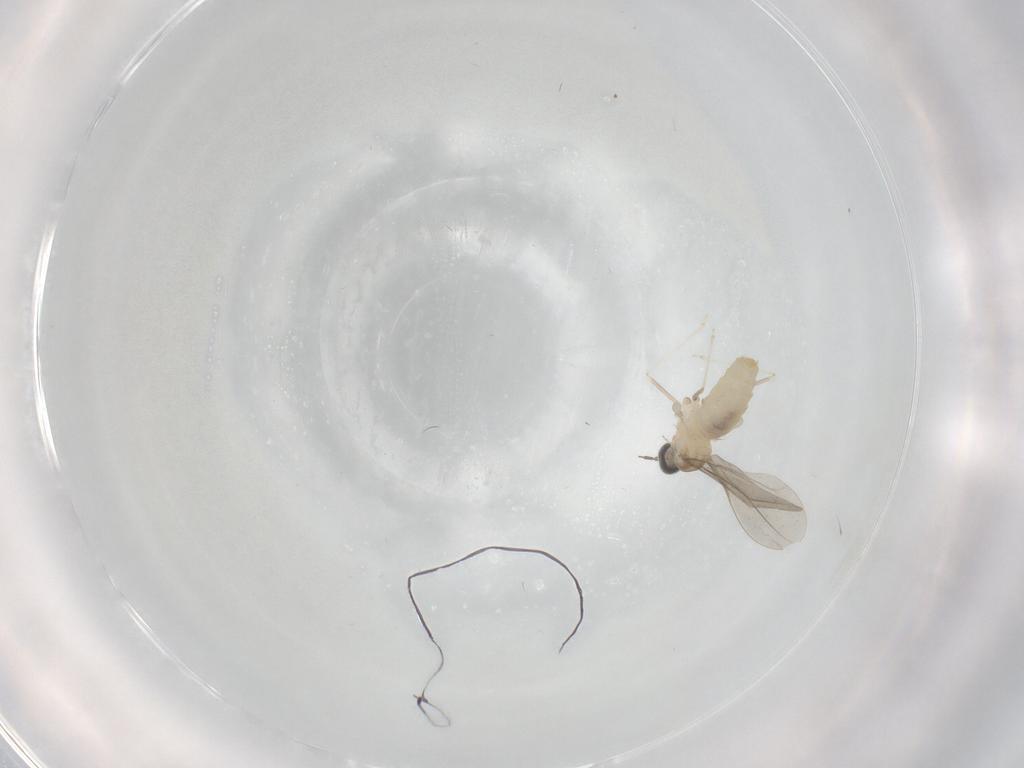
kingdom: Animalia
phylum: Arthropoda
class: Insecta
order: Diptera
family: Cecidomyiidae
